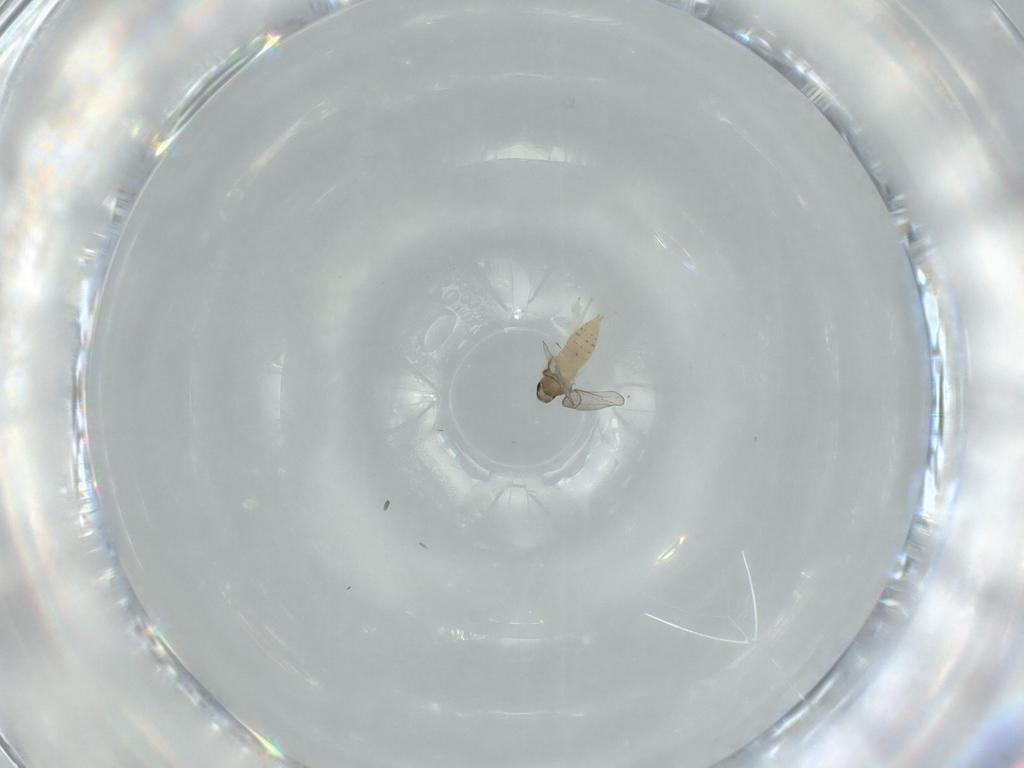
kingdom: Animalia
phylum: Arthropoda
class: Insecta
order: Diptera
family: Cecidomyiidae
